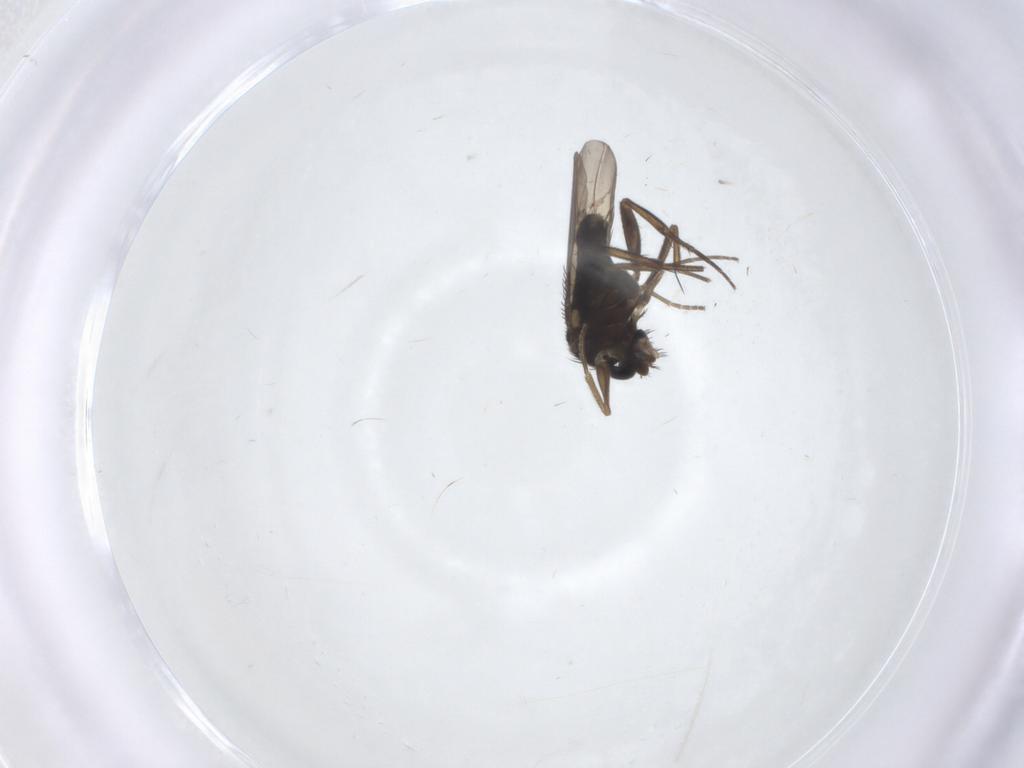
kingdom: Animalia
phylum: Arthropoda
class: Insecta
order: Diptera
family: Phoridae
